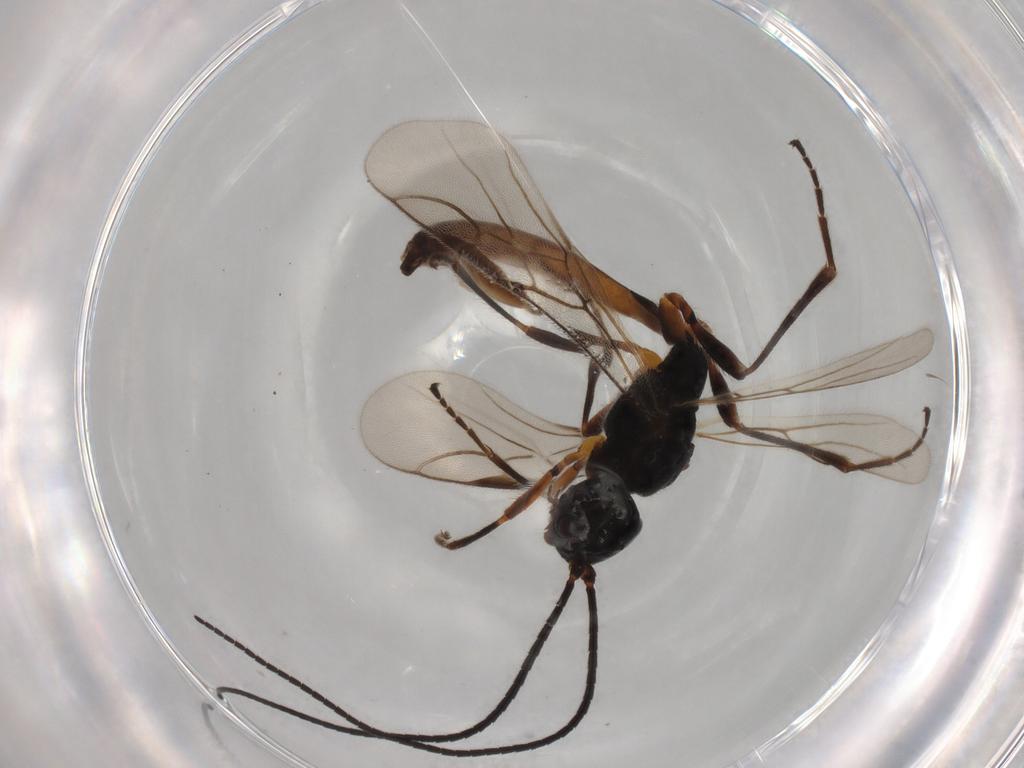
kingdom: Animalia
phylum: Arthropoda
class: Insecta
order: Hymenoptera
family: Braconidae
